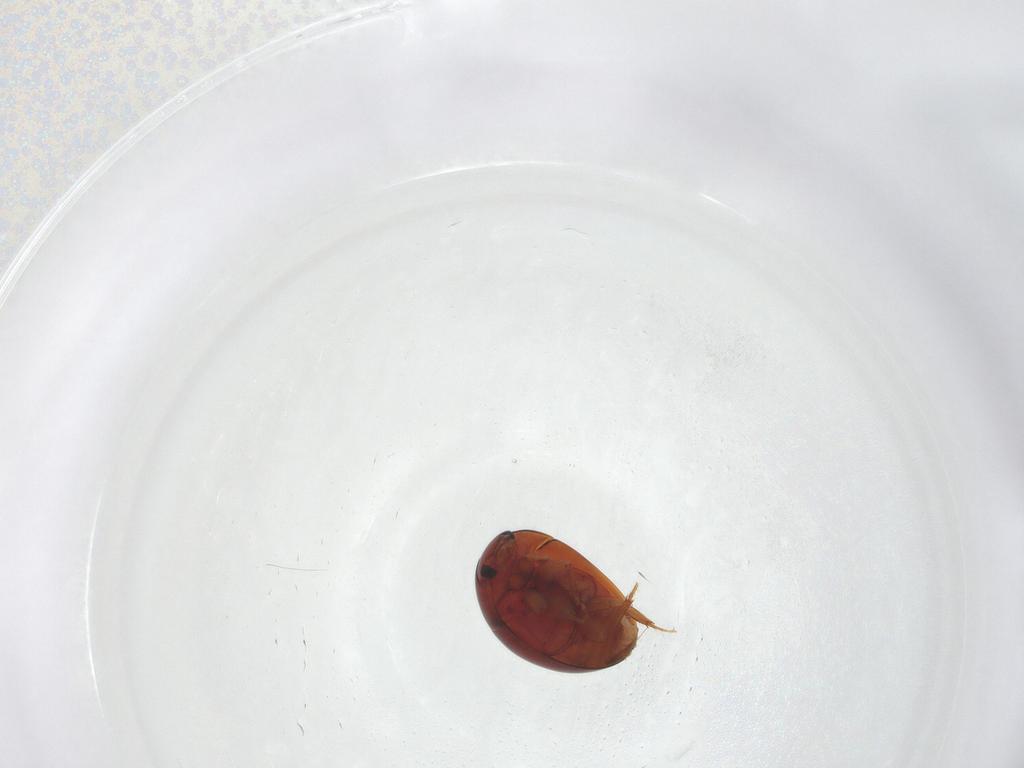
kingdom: Animalia
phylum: Arthropoda
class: Insecta
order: Coleoptera
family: Phalacridae
